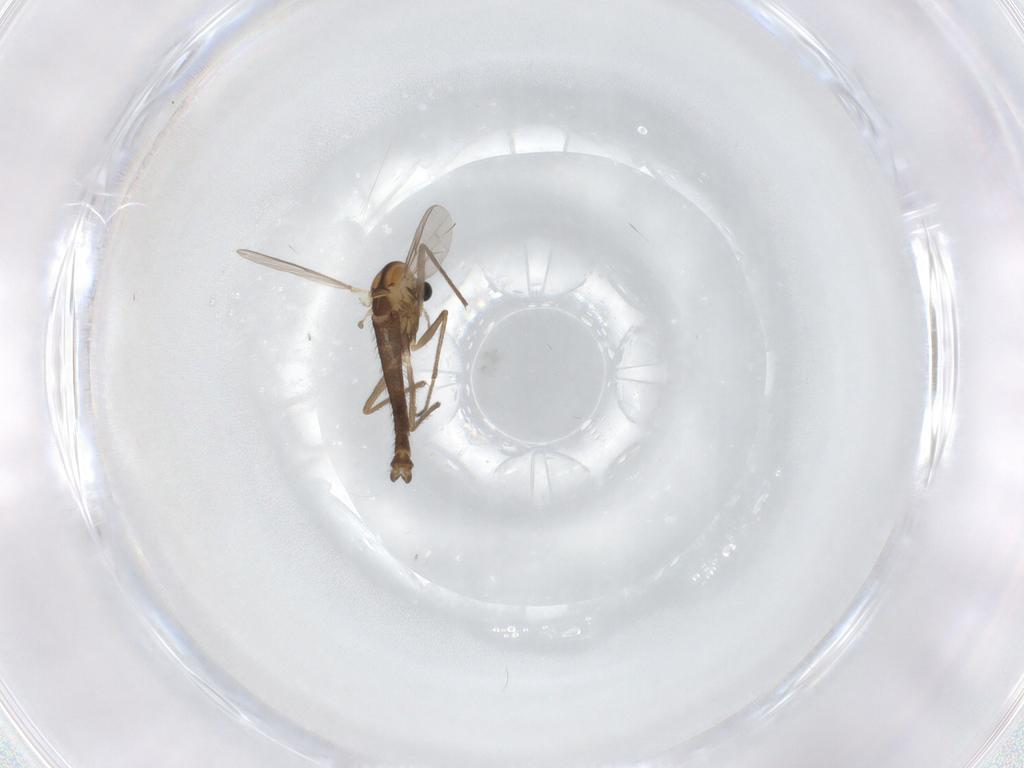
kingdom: Animalia
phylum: Arthropoda
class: Insecta
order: Diptera
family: Chironomidae
